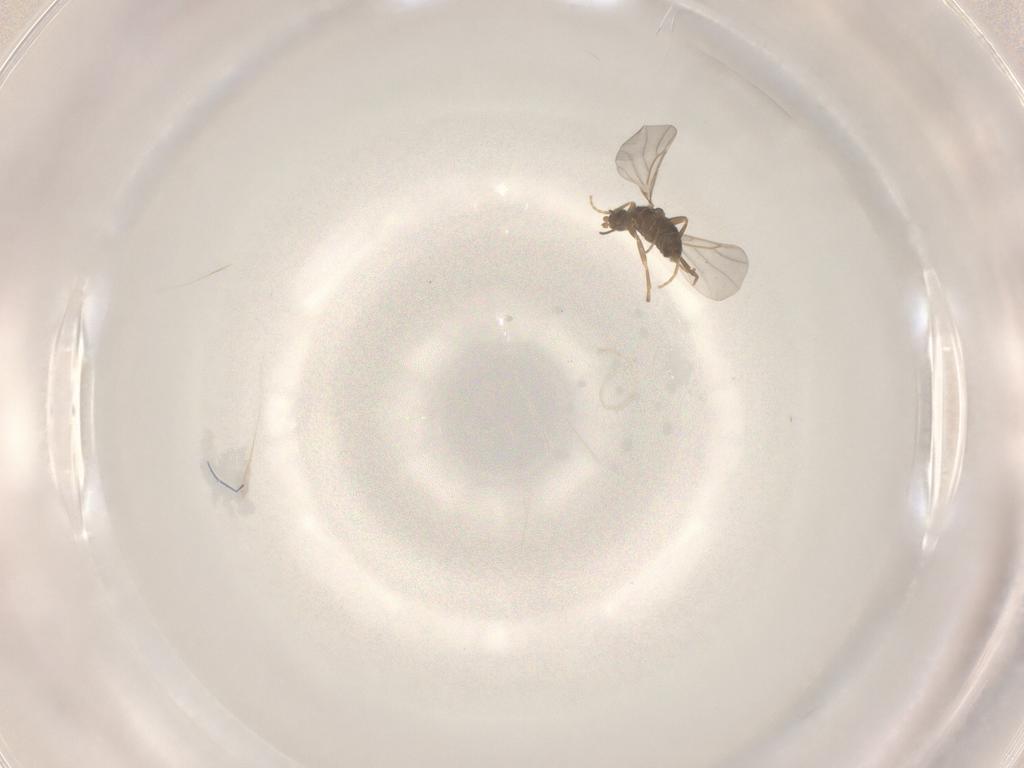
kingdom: Animalia
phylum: Arthropoda
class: Insecta
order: Diptera
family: Phoridae
